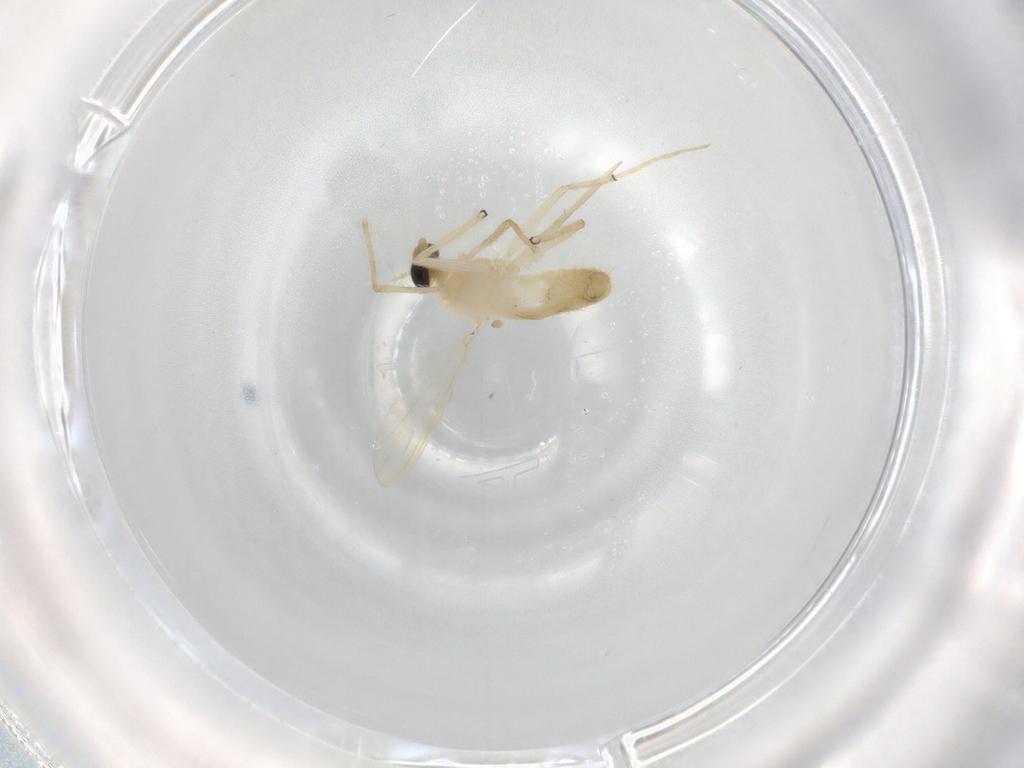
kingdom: Animalia
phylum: Arthropoda
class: Insecta
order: Diptera
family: Chironomidae
